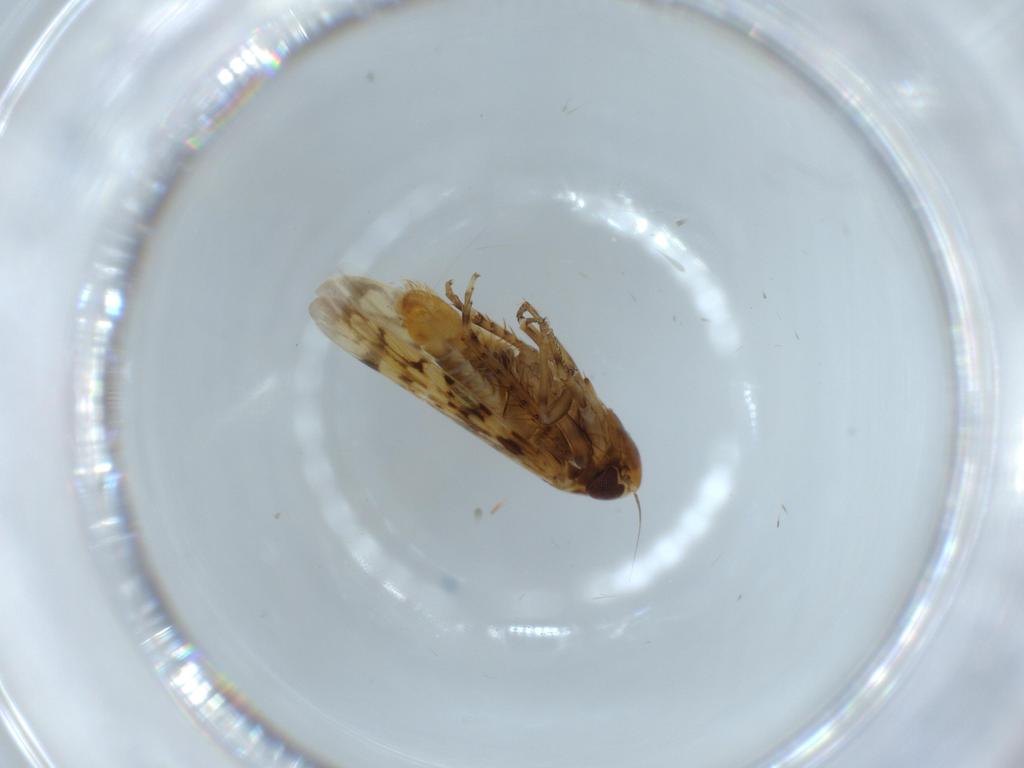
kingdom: Animalia
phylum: Arthropoda
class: Insecta
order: Hemiptera
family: Cicadellidae
